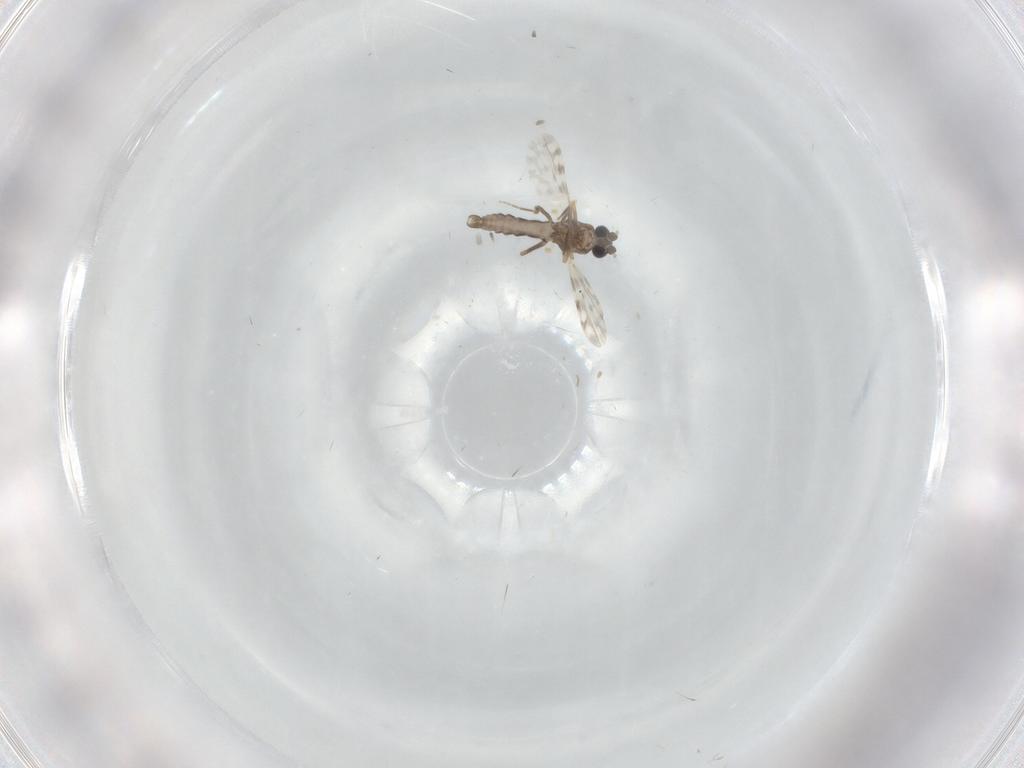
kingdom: Animalia
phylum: Arthropoda
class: Insecta
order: Diptera
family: Ceratopogonidae
